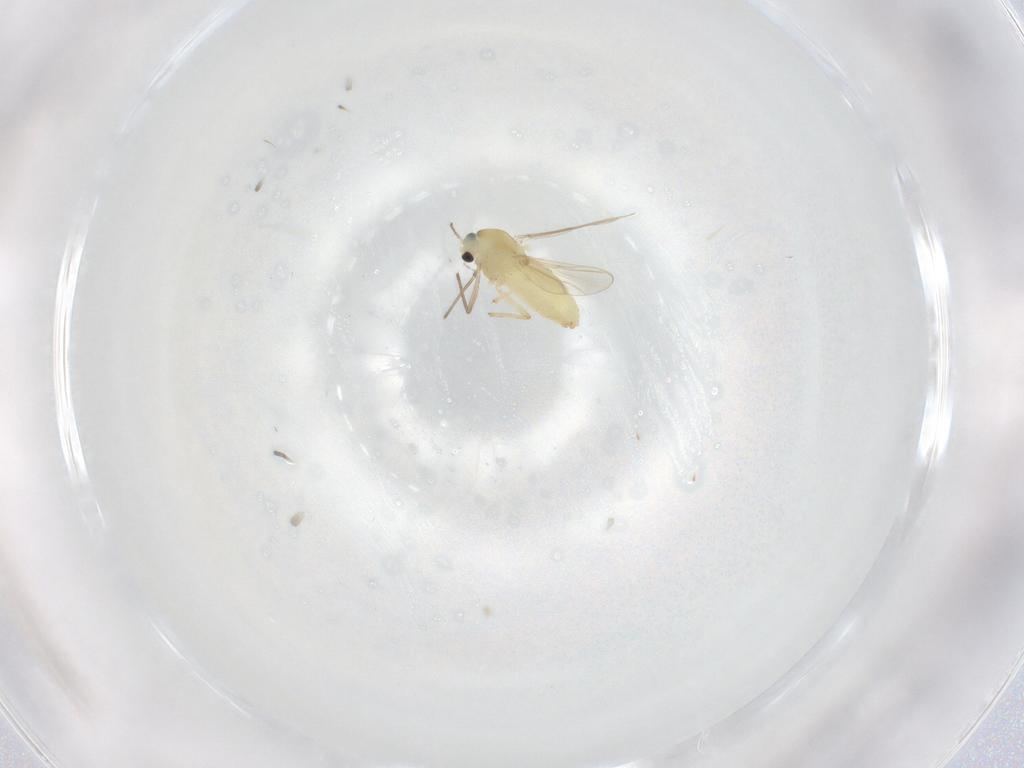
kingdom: Animalia
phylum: Arthropoda
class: Insecta
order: Diptera
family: Chironomidae
